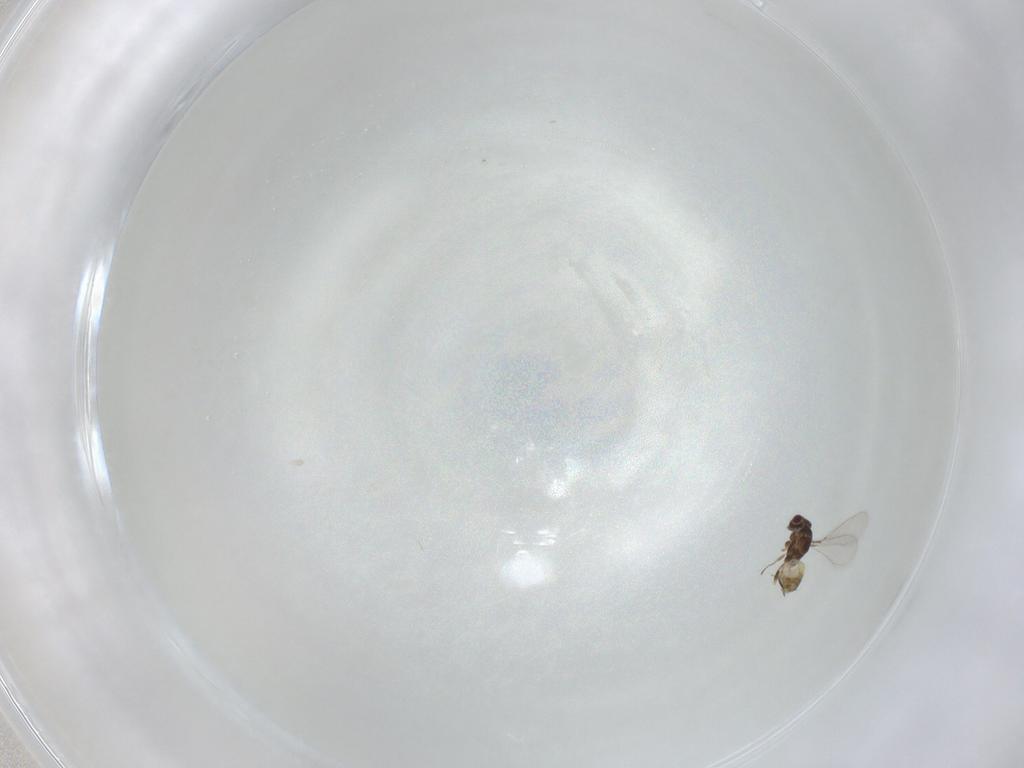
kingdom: Animalia
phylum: Arthropoda
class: Insecta
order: Hymenoptera
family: Mymaridae
